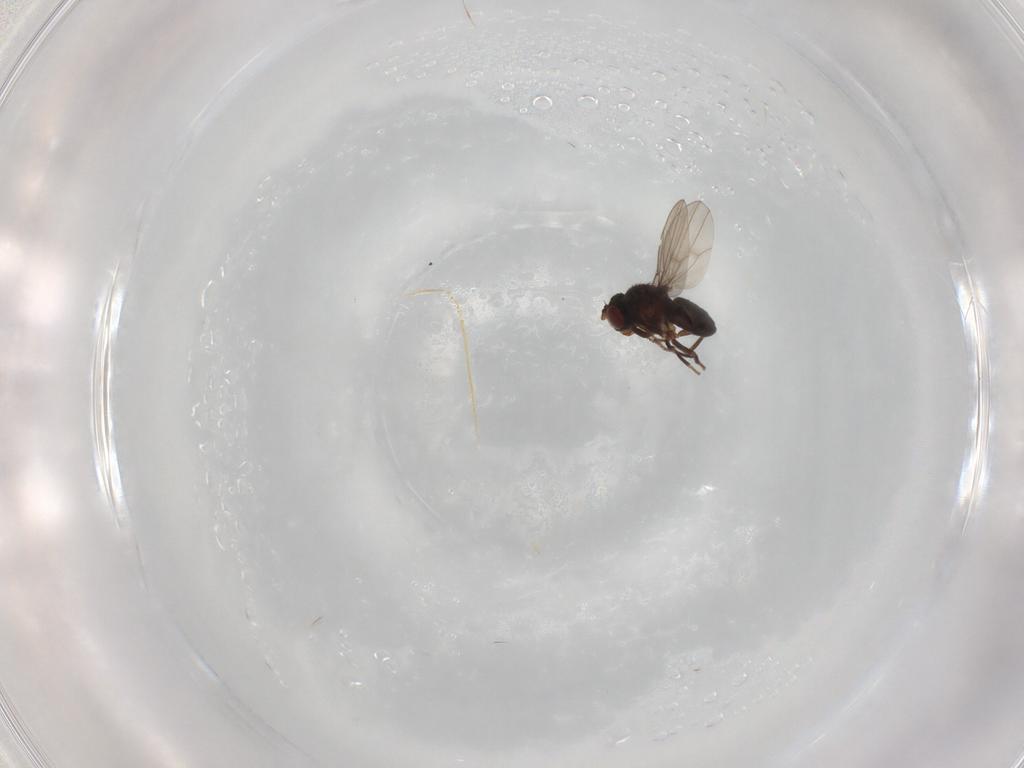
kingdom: Animalia
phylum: Arthropoda
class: Insecta
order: Diptera
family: Ephydridae
